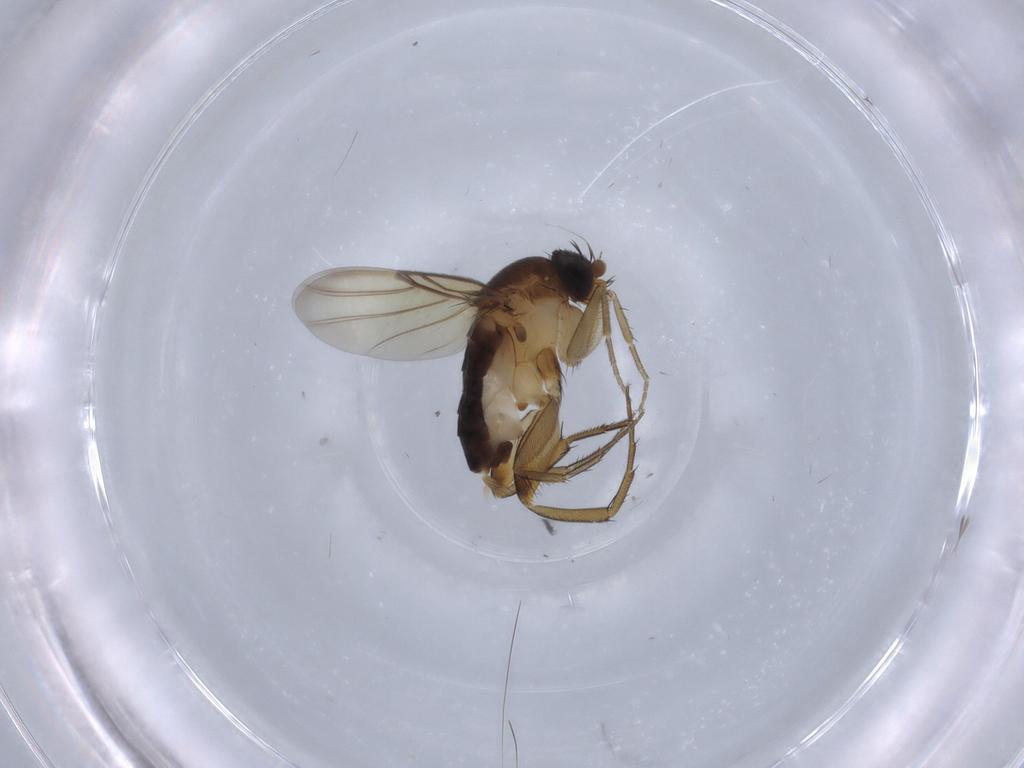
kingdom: Animalia
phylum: Arthropoda
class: Insecta
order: Diptera
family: Phoridae
